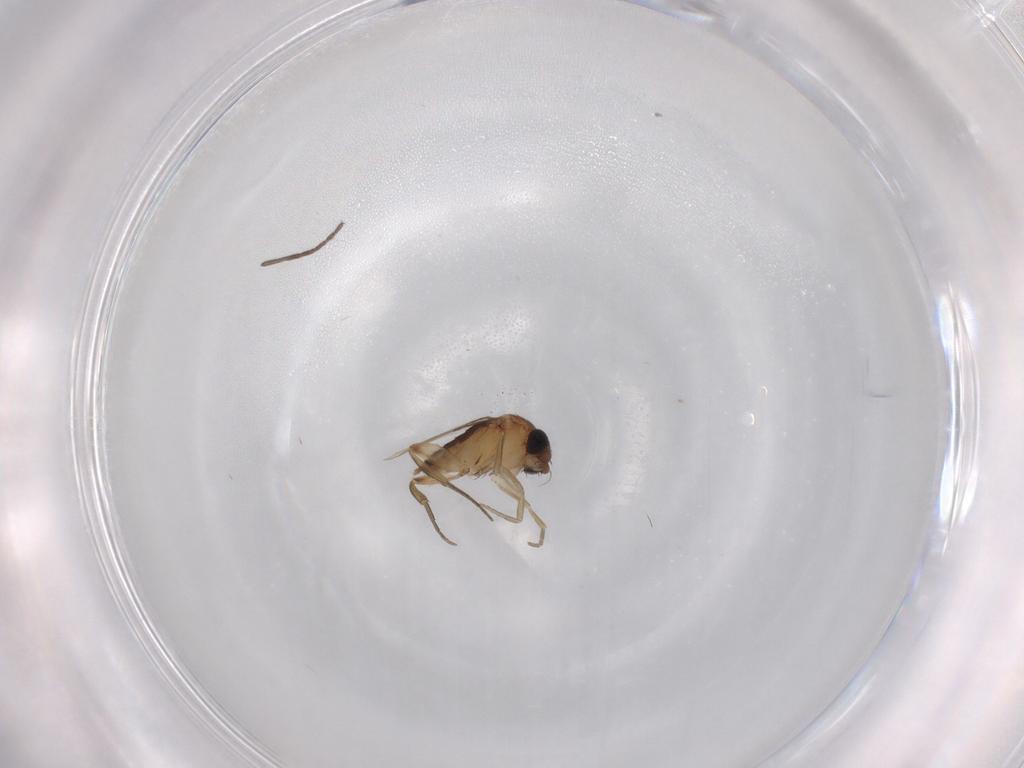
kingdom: Animalia
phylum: Arthropoda
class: Insecta
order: Diptera
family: Phoridae
